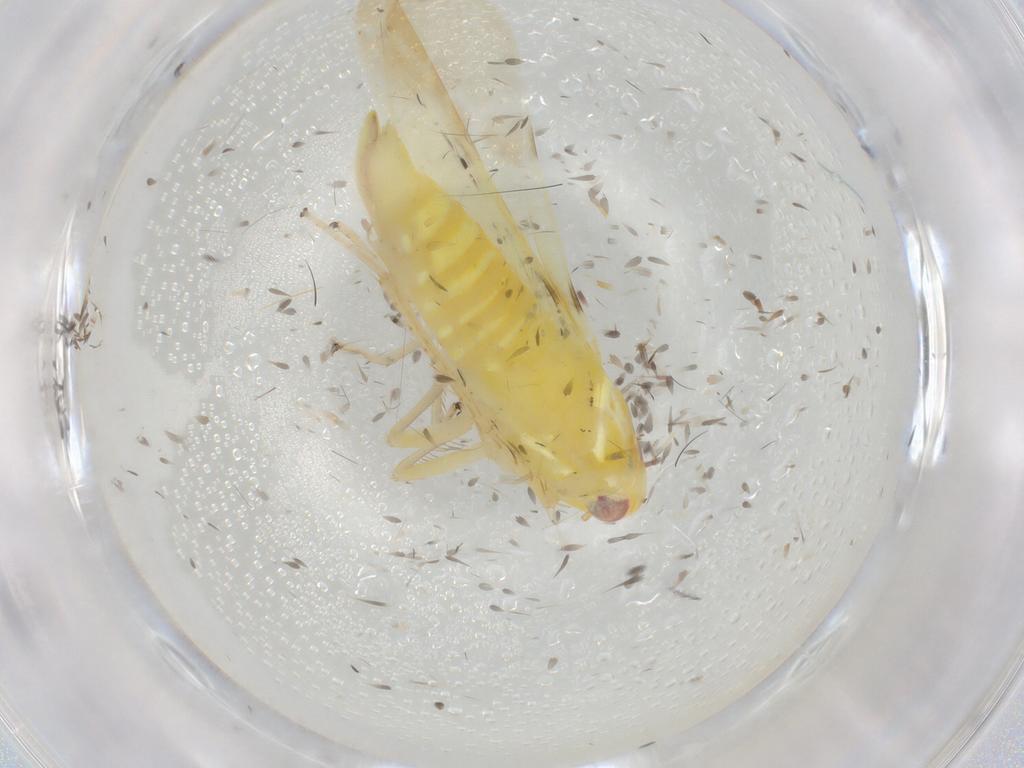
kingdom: Animalia
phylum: Arthropoda
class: Insecta
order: Hemiptera
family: Cicadellidae
